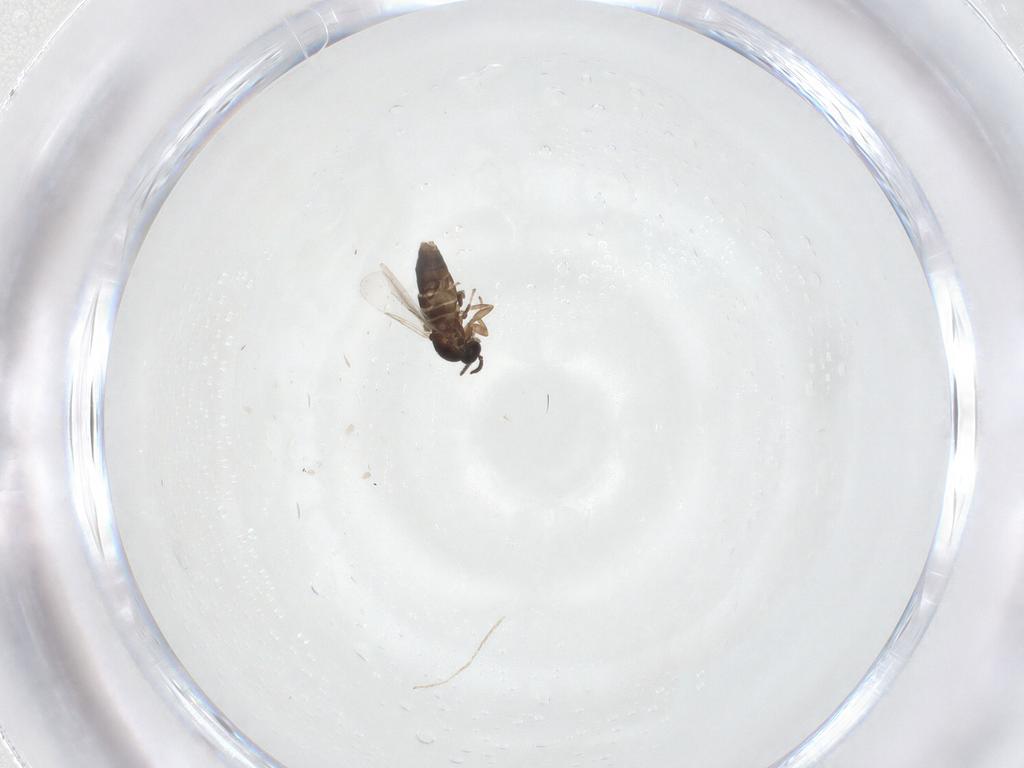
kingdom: Animalia
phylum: Arthropoda
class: Insecta
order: Diptera
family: Scatopsidae
